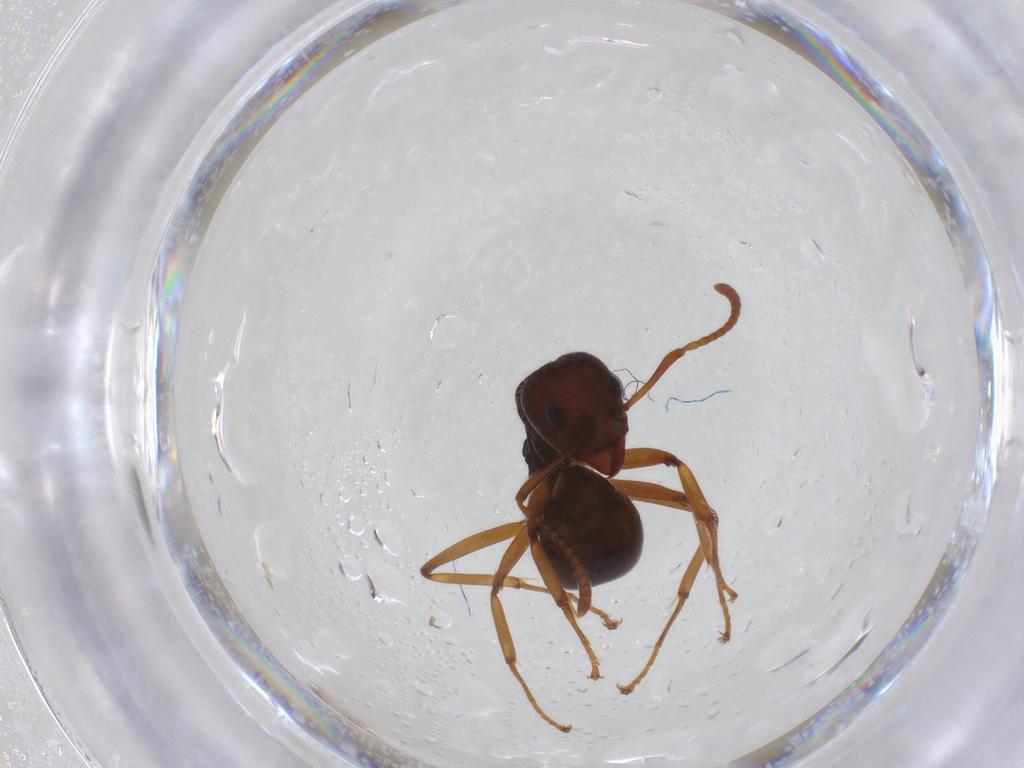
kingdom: Animalia
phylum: Arthropoda
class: Insecta
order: Hymenoptera
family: Formicidae
